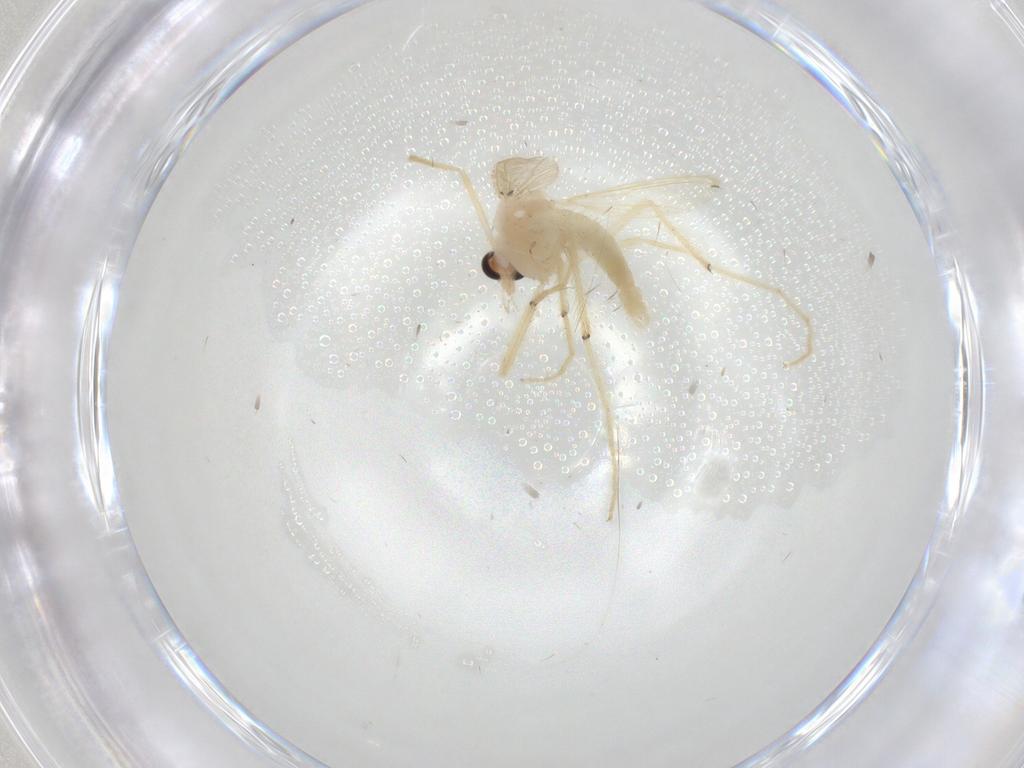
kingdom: Animalia
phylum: Arthropoda
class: Insecta
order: Diptera
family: Chironomidae
